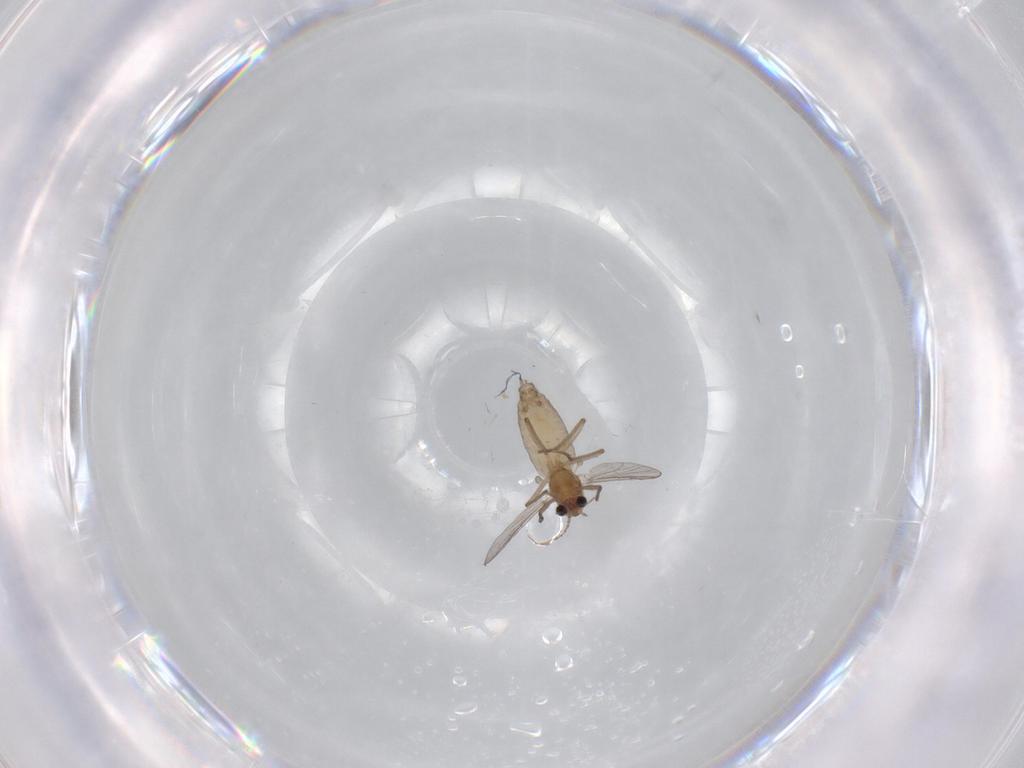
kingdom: Animalia
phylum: Arthropoda
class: Insecta
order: Diptera
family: Chironomidae
